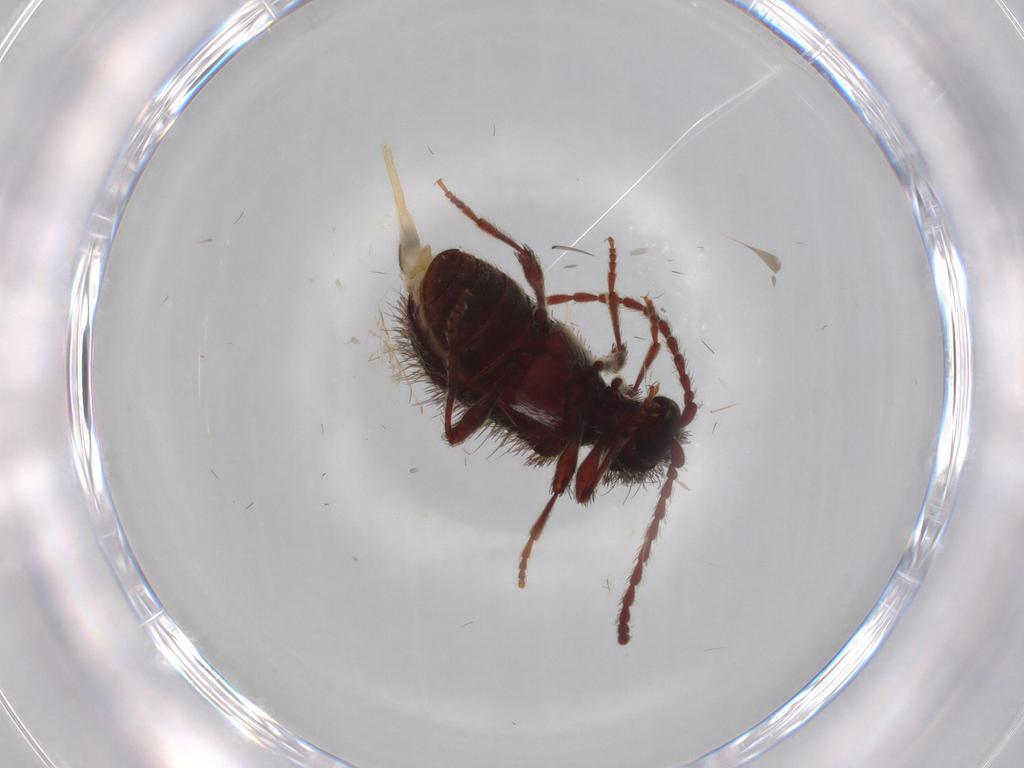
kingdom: Animalia
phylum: Arthropoda
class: Insecta
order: Coleoptera
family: Ptinidae
